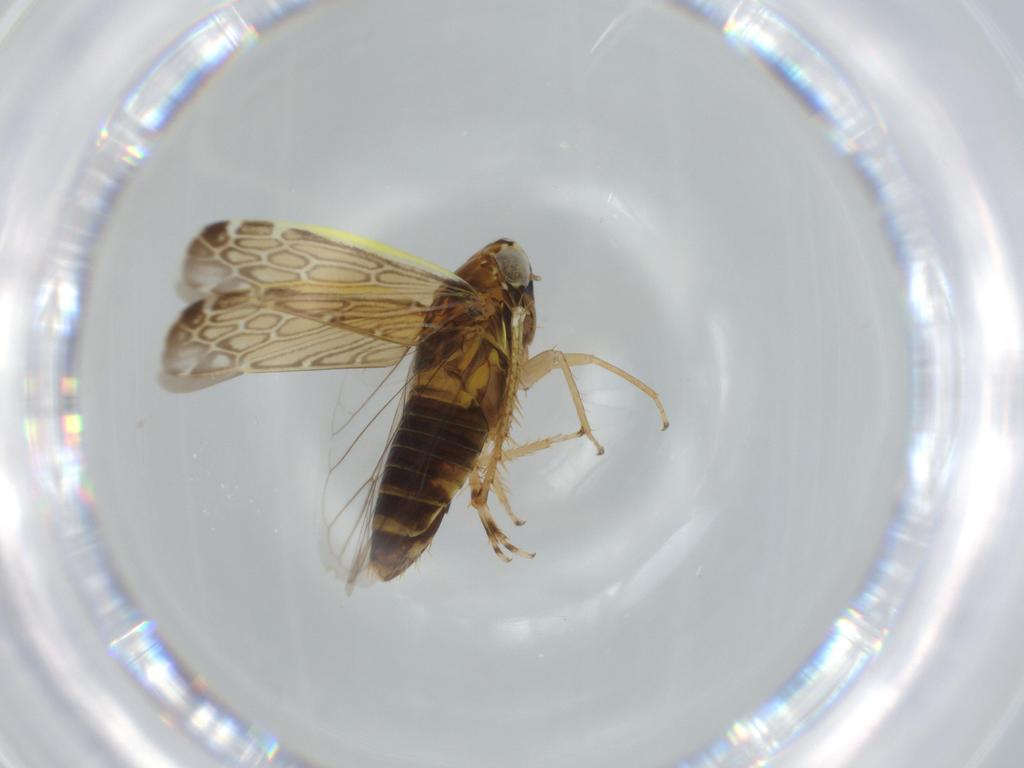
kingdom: Animalia
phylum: Arthropoda
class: Insecta
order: Hemiptera
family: Cicadellidae
